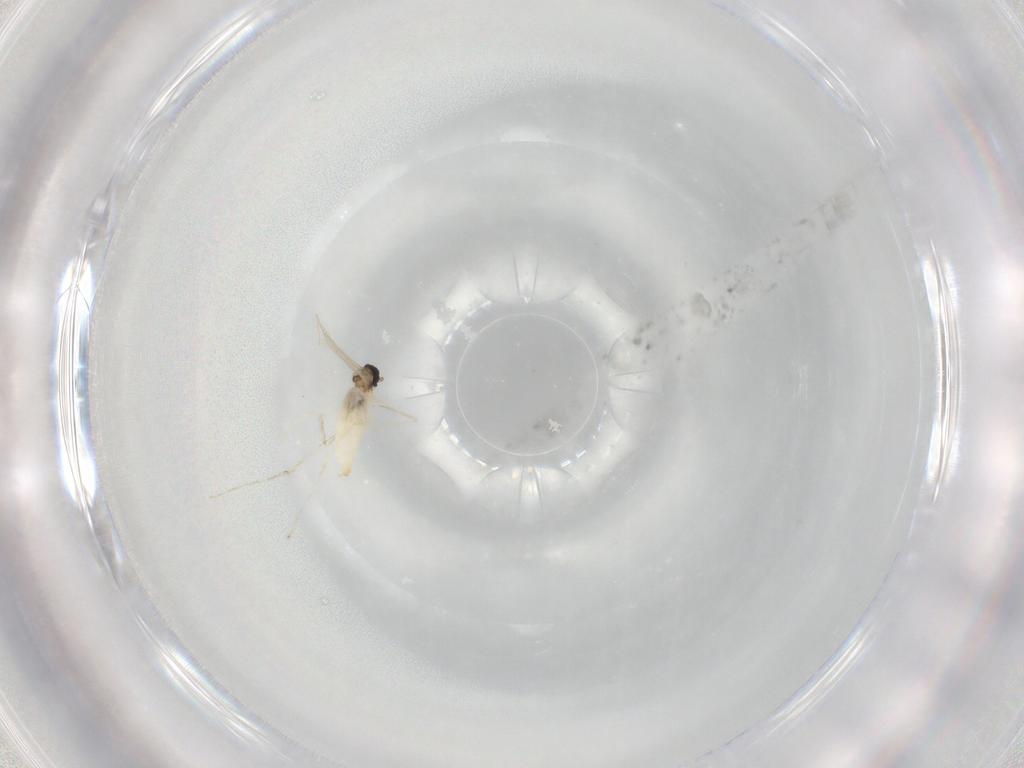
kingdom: Animalia
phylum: Arthropoda
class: Insecta
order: Diptera
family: Cecidomyiidae
